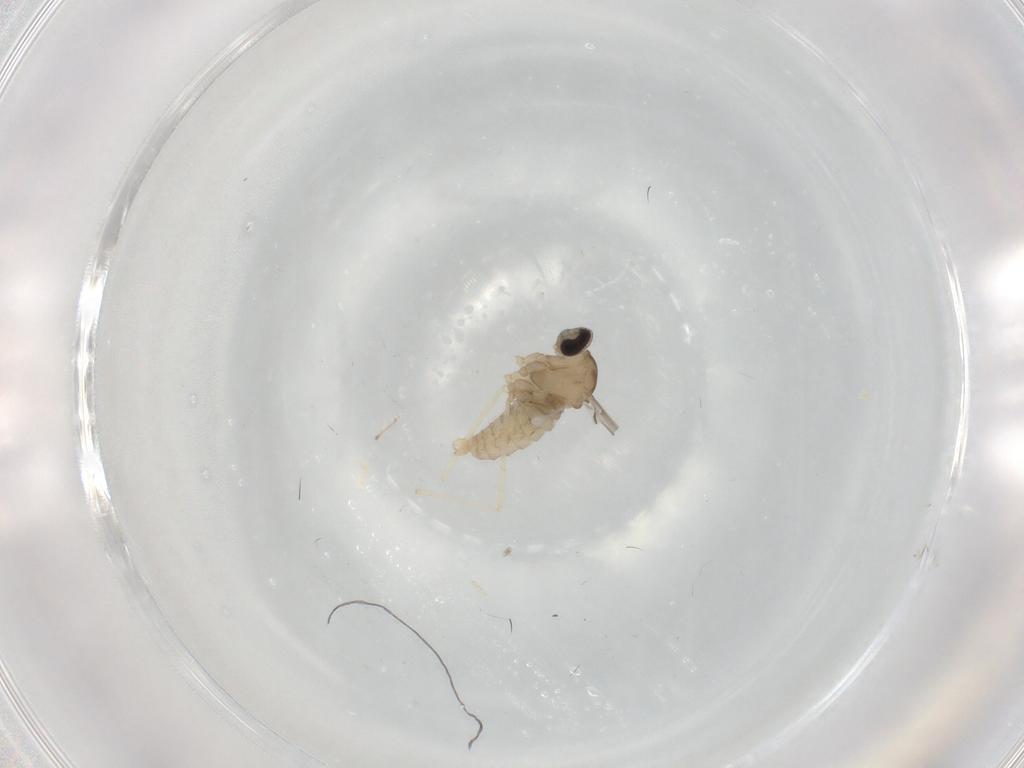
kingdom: Animalia
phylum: Arthropoda
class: Insecta
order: Diptera
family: Cecidomyiidae
